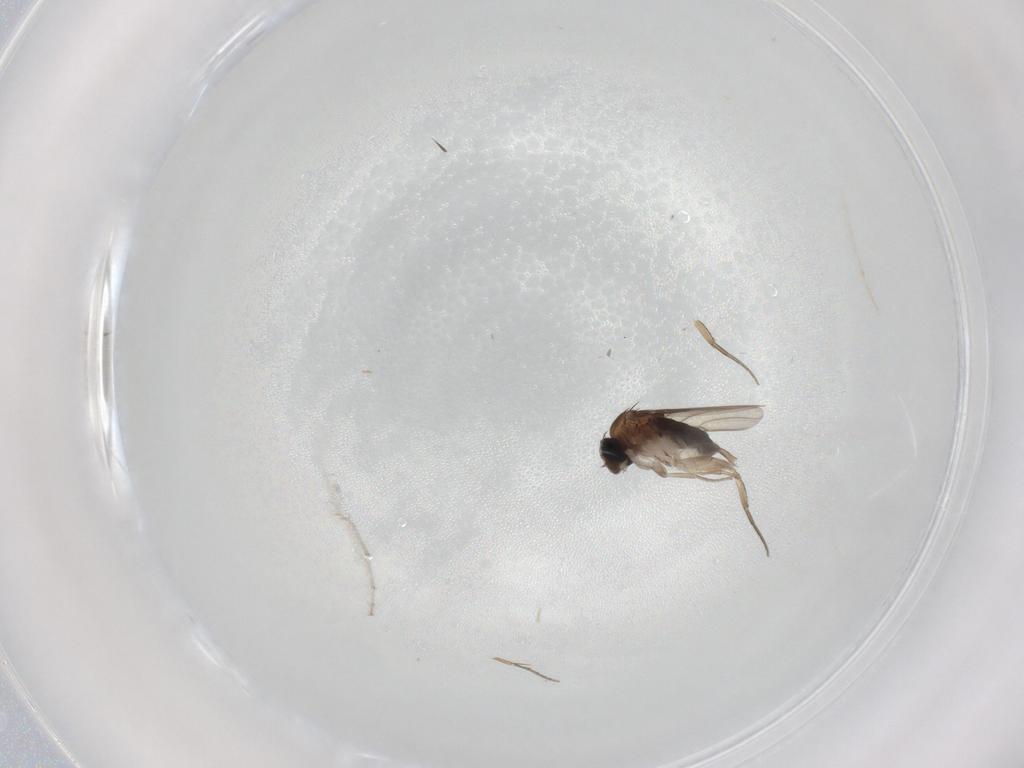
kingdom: Animalia
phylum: Arthropoda
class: Insecta
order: Diptera
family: Phoridae
